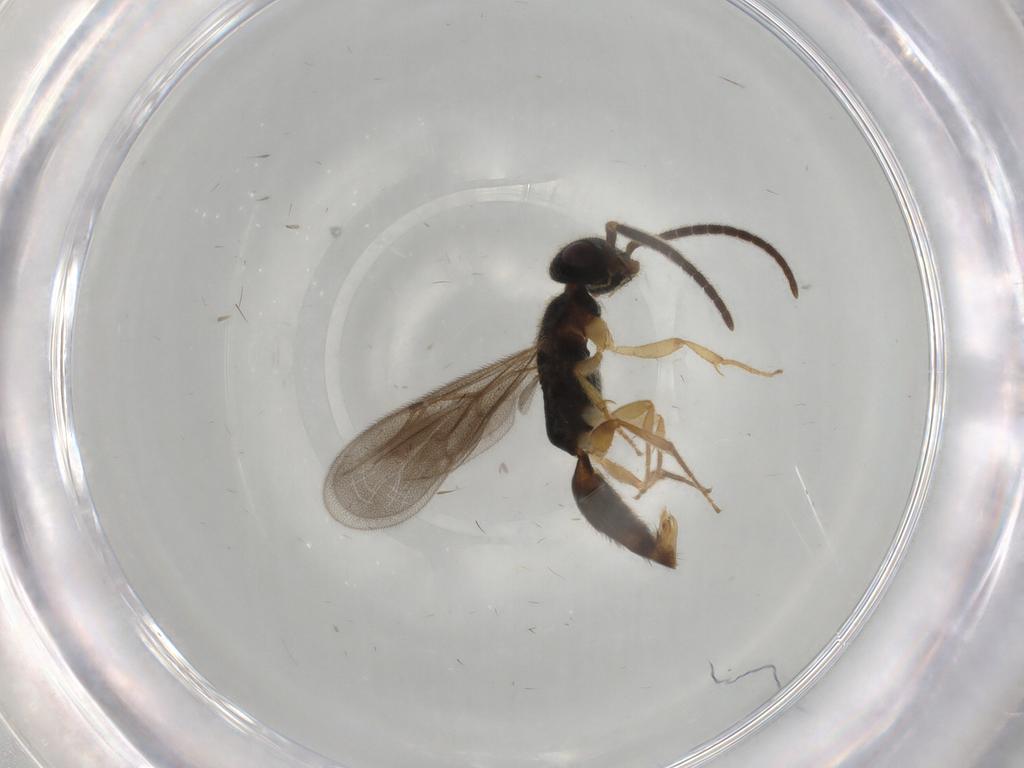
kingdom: Animalia
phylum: Arthropoda
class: Insecta
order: Hymenoptera
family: Bethylidae
